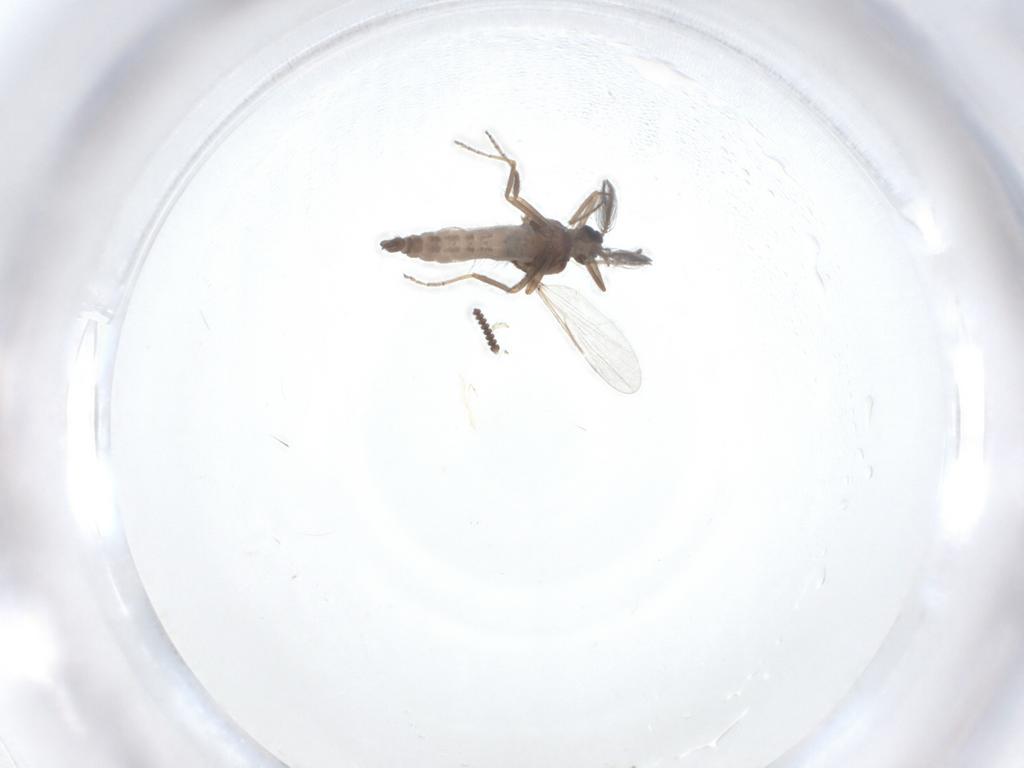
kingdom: Animalia
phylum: Arthropoda
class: Insecta
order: Diptera
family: Ceratopogonidae
